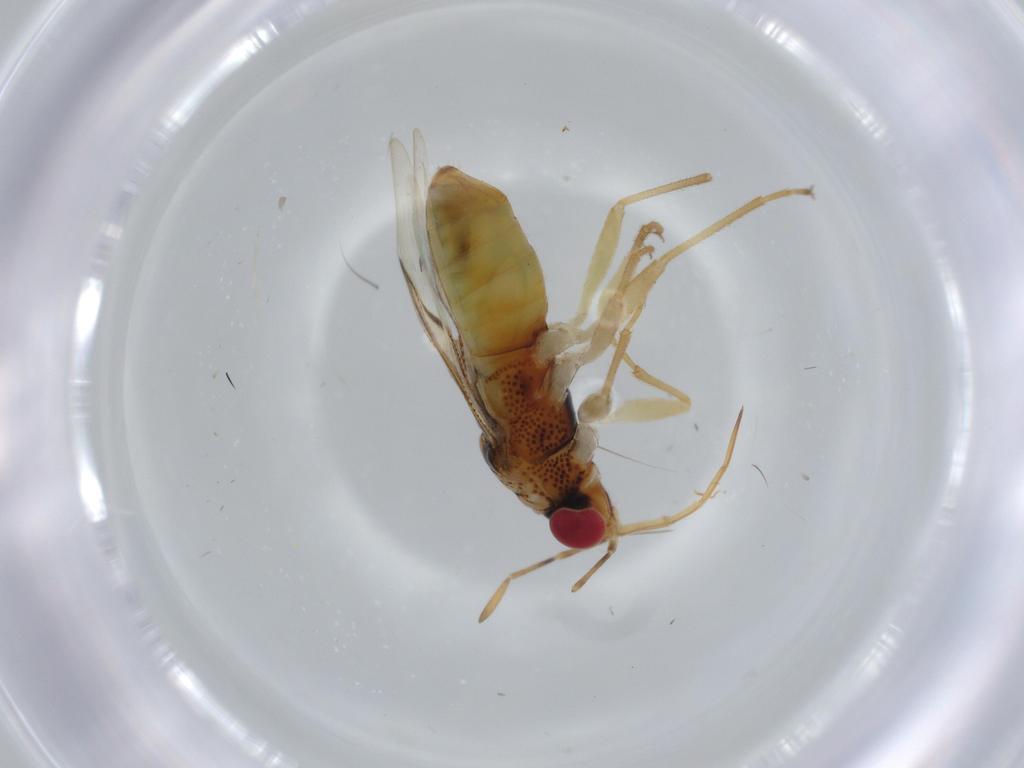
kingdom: Animalia
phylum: Arthropoda
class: Insecta
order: Hemiptera
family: Geocoridae
